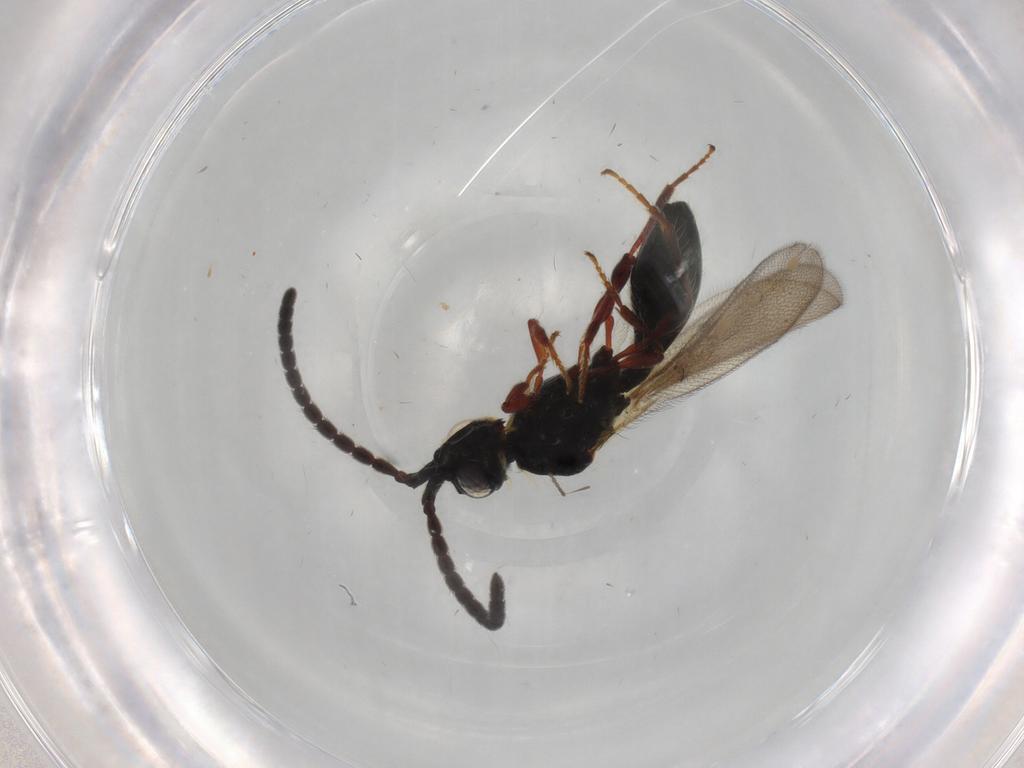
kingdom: Animalia
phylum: Arthropoda
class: Insecta
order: Hymenoptera
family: Diapriidae
